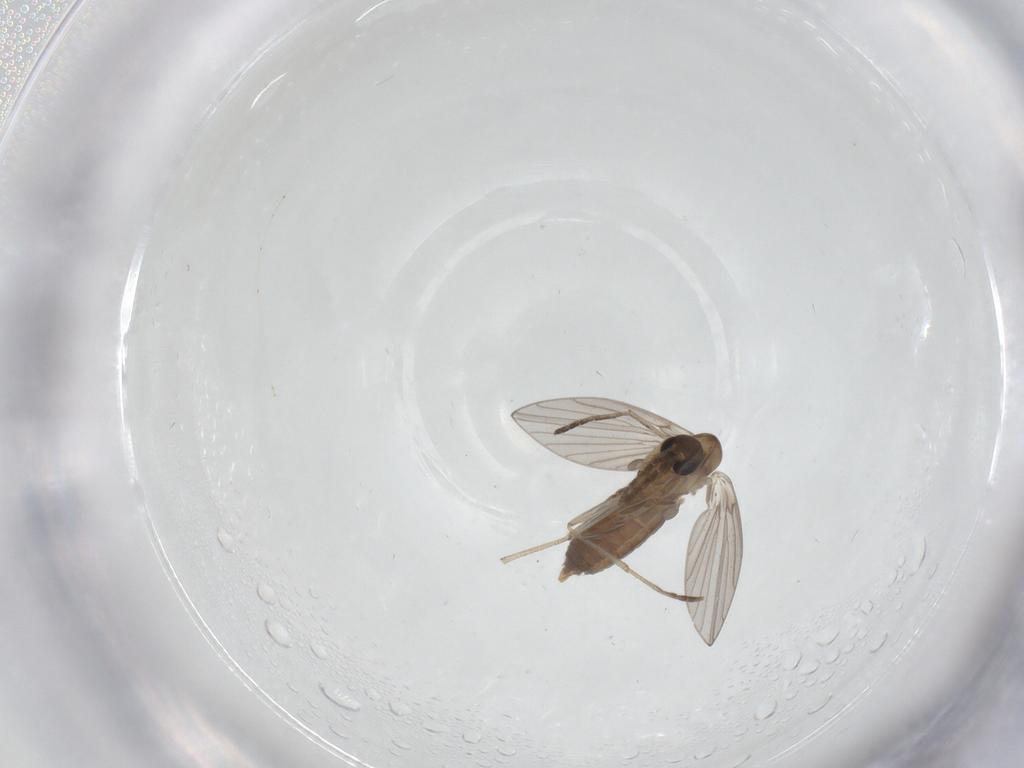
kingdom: Animalia
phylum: Arthropoda
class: Insecta
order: Diptera
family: Cecidomyiidae
